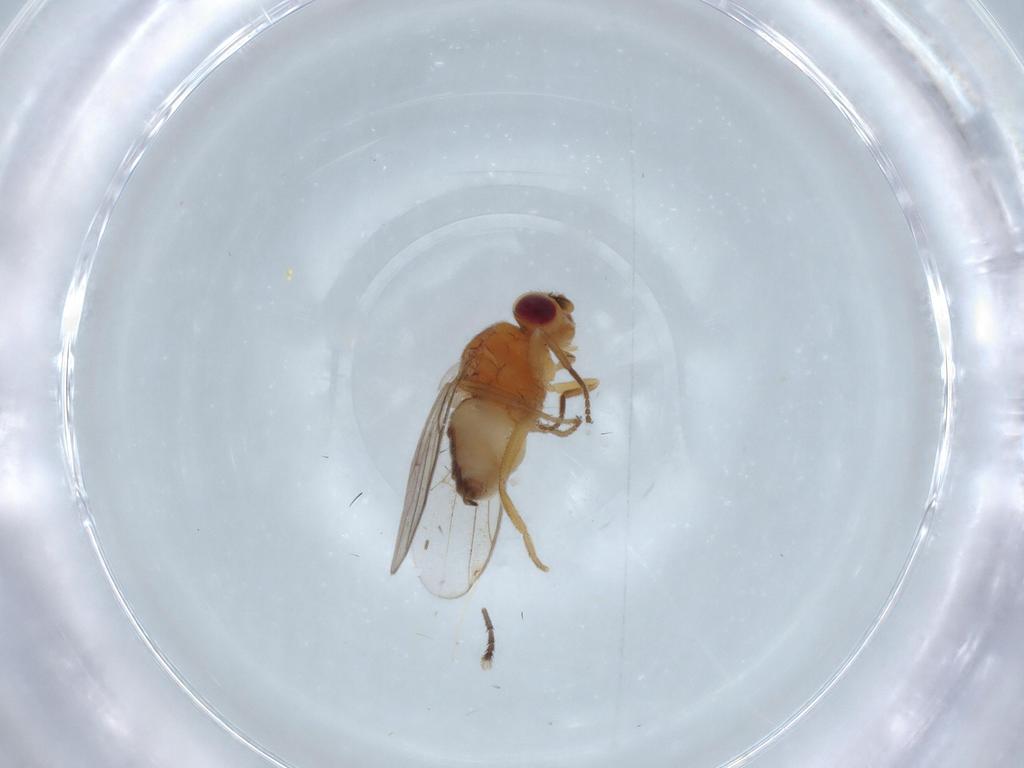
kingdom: Animalia
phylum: Arthropoda
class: Insecta
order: Diptera
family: Chloropidae
